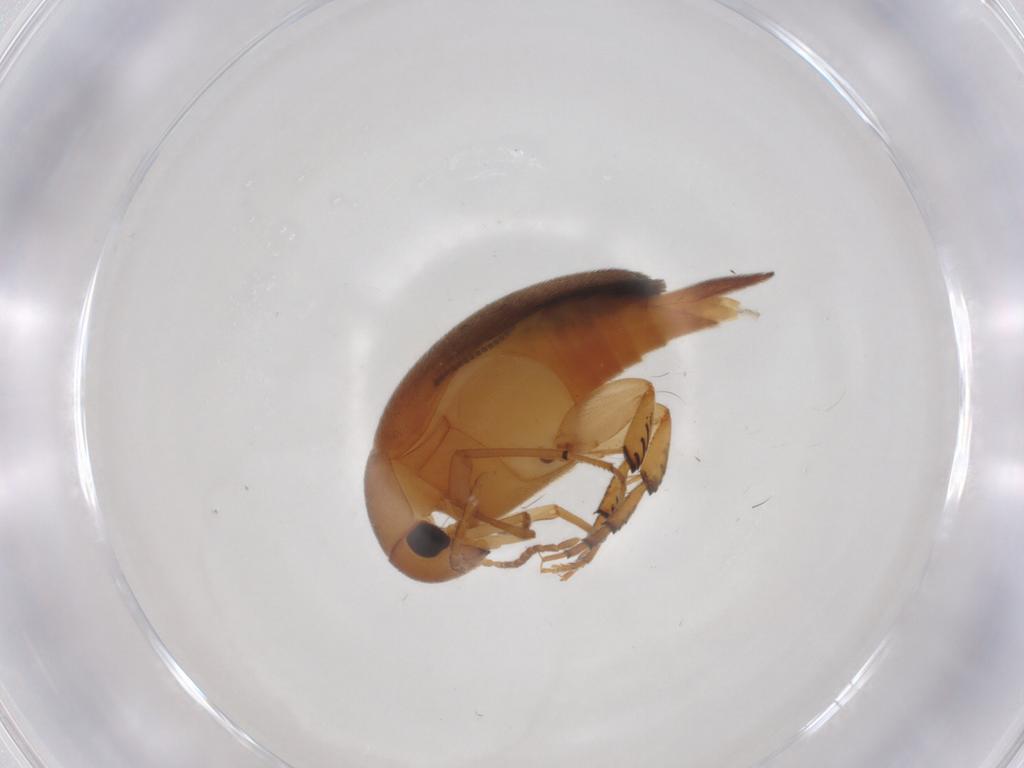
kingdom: Animalia
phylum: Arthropoda
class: Insecta
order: Coleoptera
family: Mordellidae
